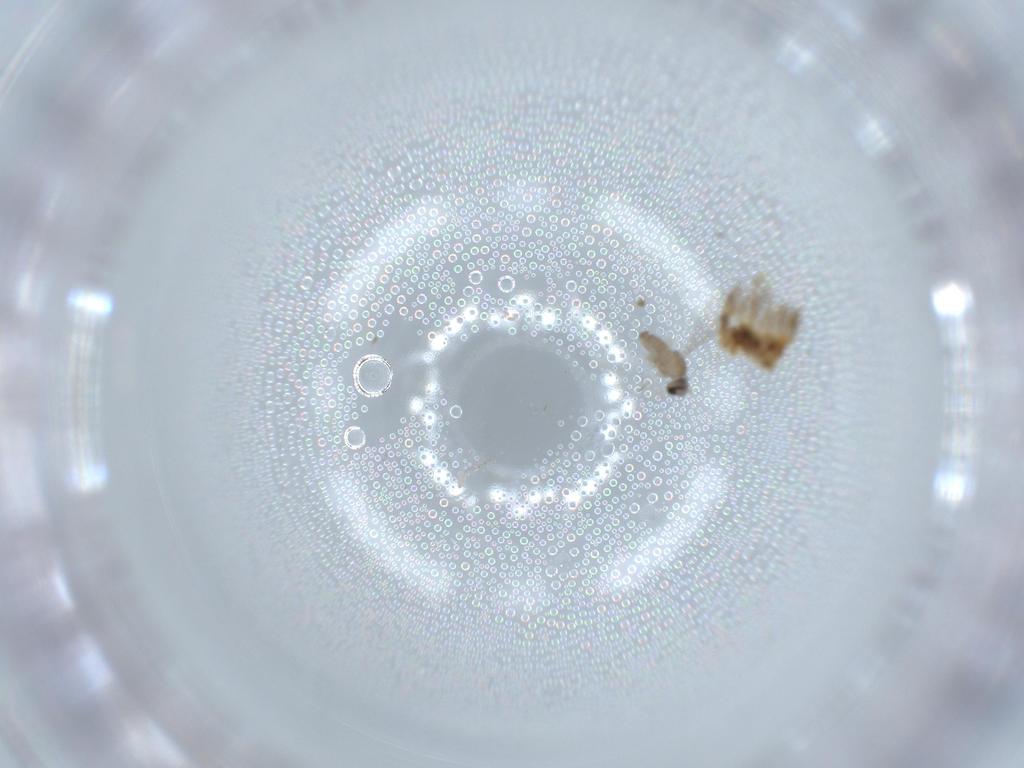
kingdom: Animalia
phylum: Arthropoda
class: Insecta
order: Diptera
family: Cecidomyiidae
